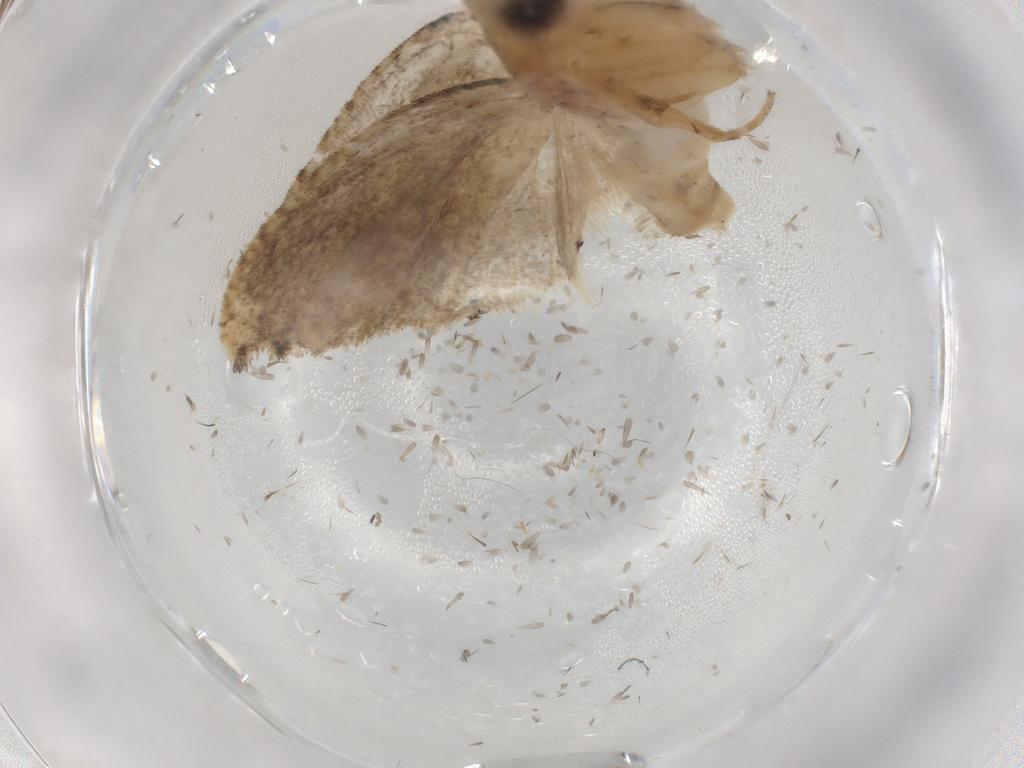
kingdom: Animalia
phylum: Arthropoda
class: Insecta
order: Lepidoptera
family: Tortricidae
